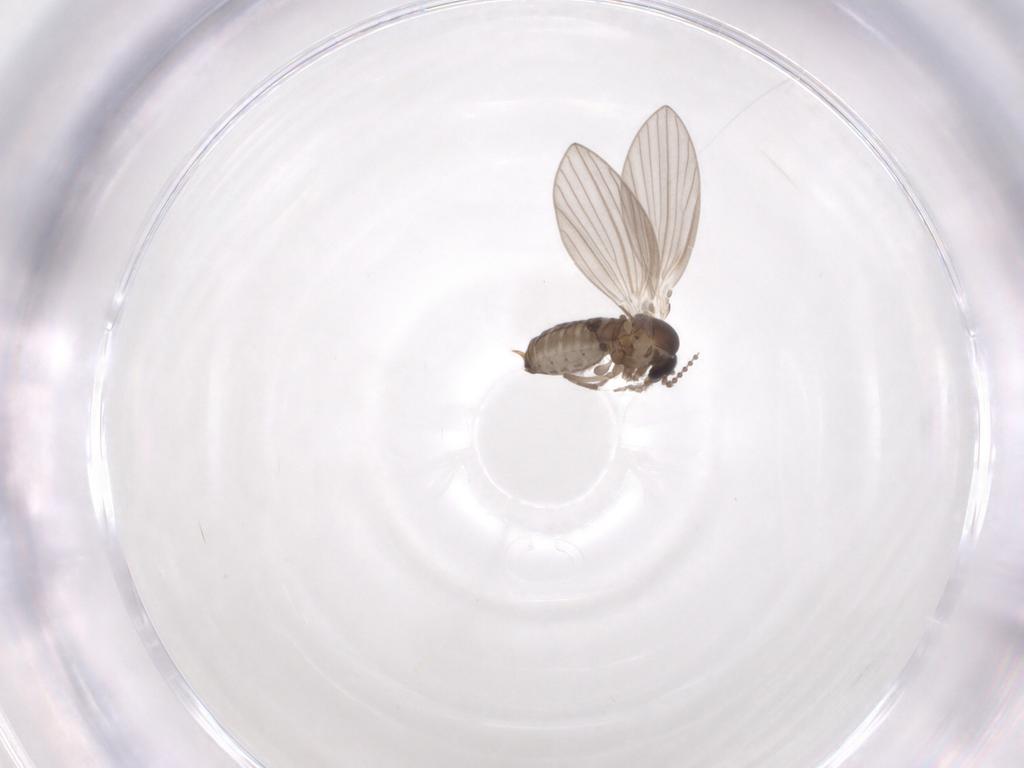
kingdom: Animalia
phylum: Arthropoda
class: Insecta
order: Diptera
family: Psychodidae
